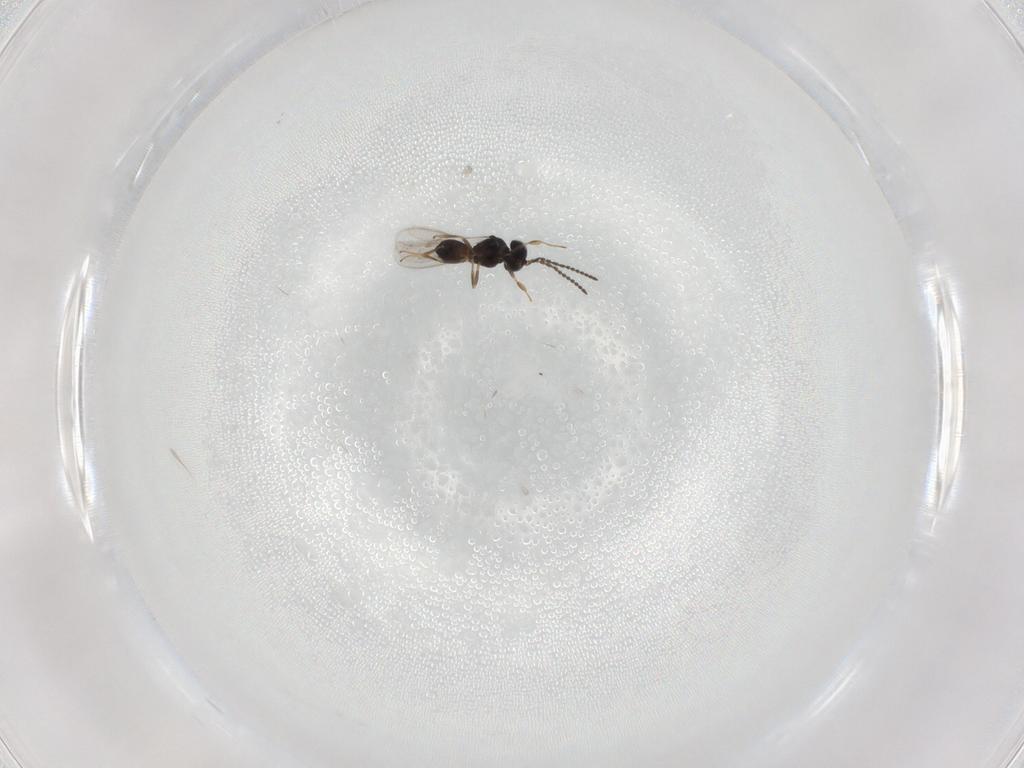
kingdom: Animalia
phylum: Arthropoda
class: Insecta
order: Hymenoptera
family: Scelionidae
